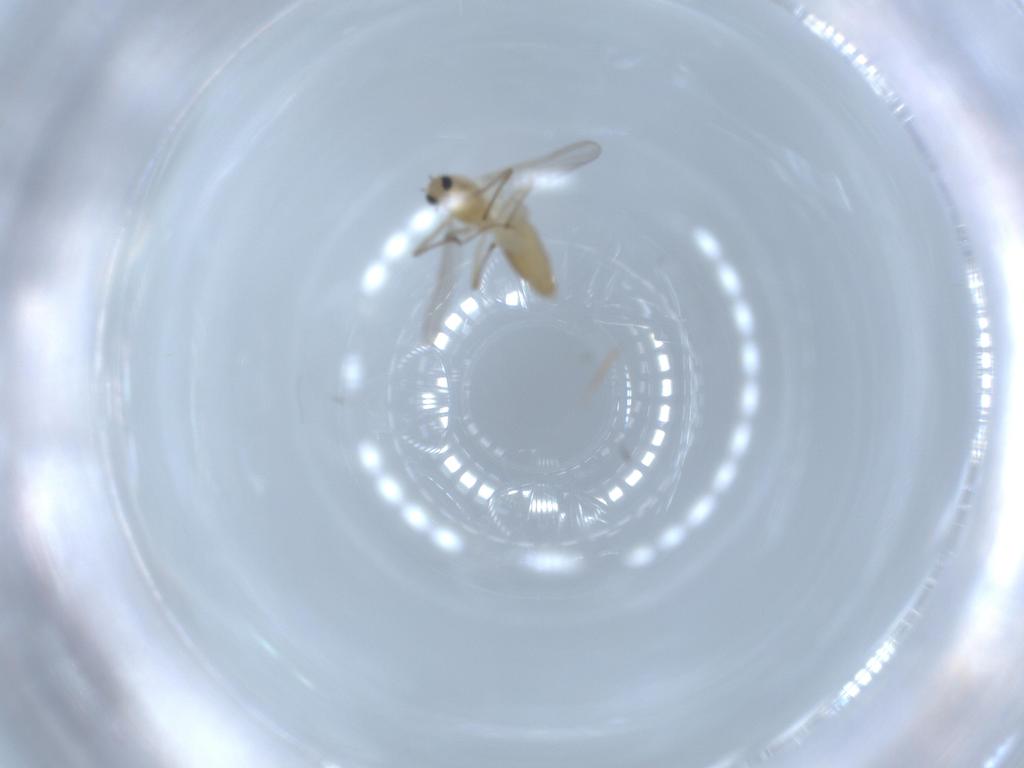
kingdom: Animalia
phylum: Arthropoda
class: Insecta
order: Diptera
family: Chironomidae
